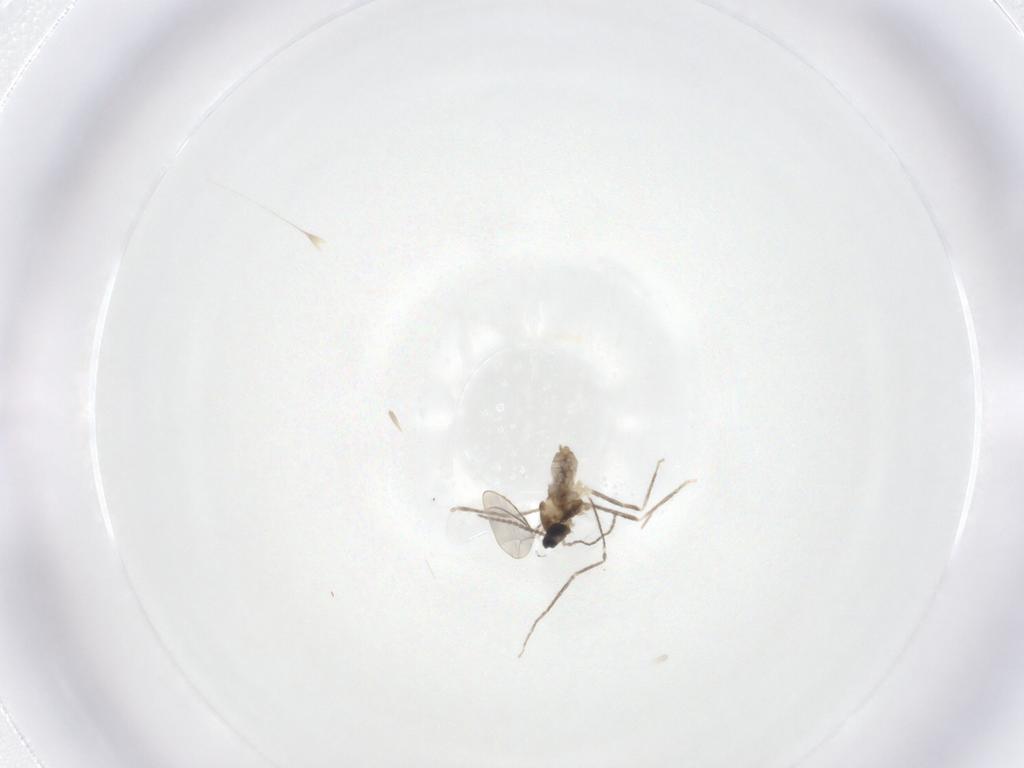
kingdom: Animalia
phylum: Arthropoda
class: Insecta
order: Diptera
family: Cecidomyiidae
